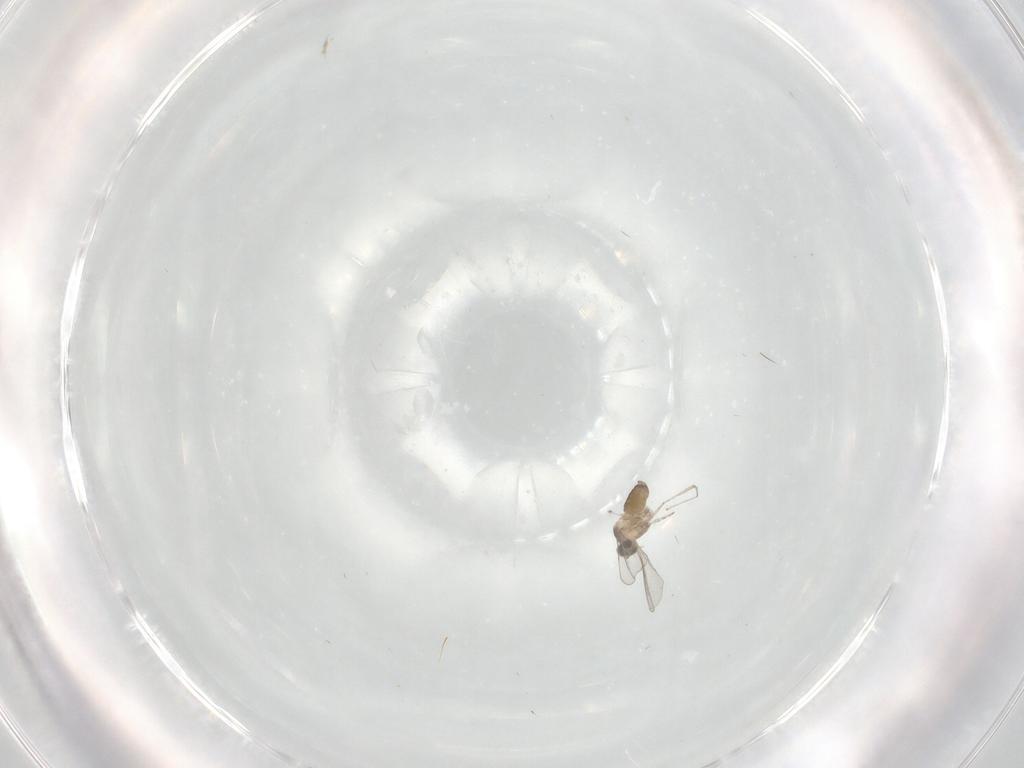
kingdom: Animalia
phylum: Arthropoda
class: Insecta
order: Diptera
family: Cecidomyiidae
